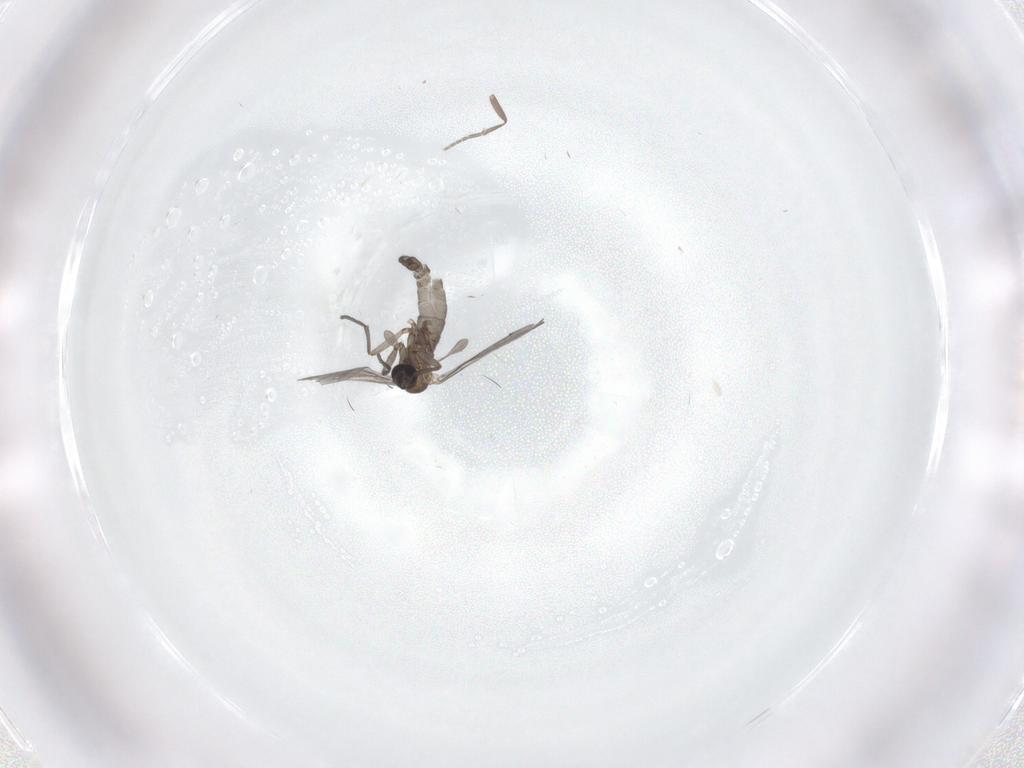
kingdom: Animalia
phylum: Arthropoda
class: Insecta
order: Diptera
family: Sciaridae
